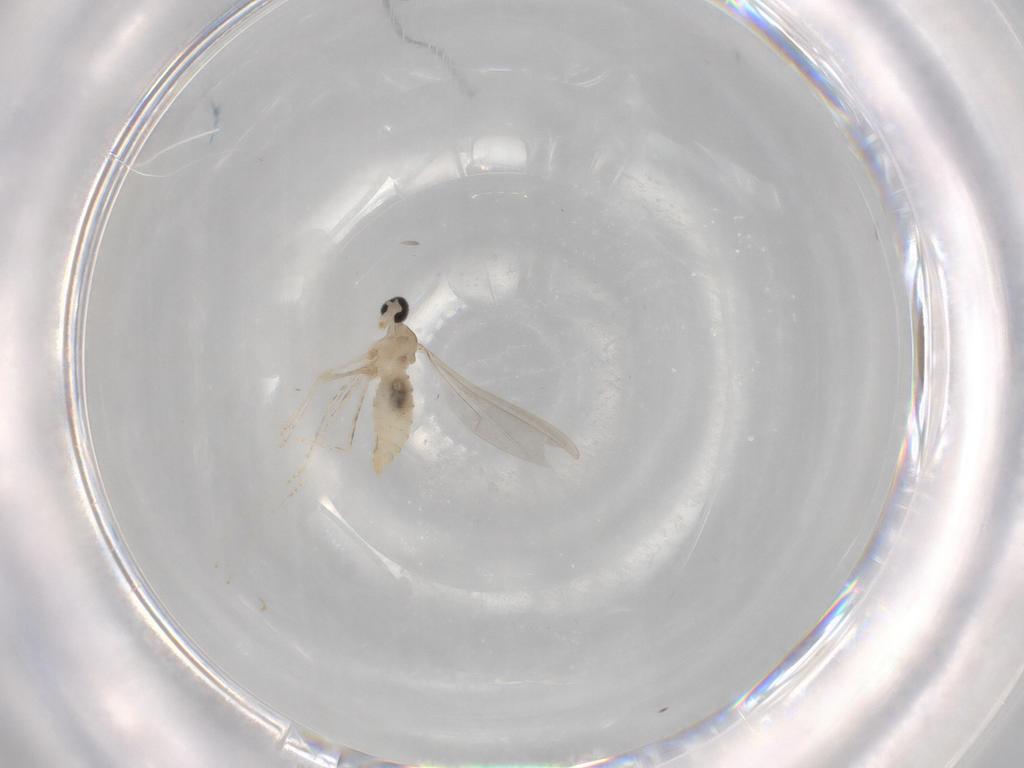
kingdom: Animalia
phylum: Arthropoda
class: Insecta
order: Diptera
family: Cecidomyiidae
